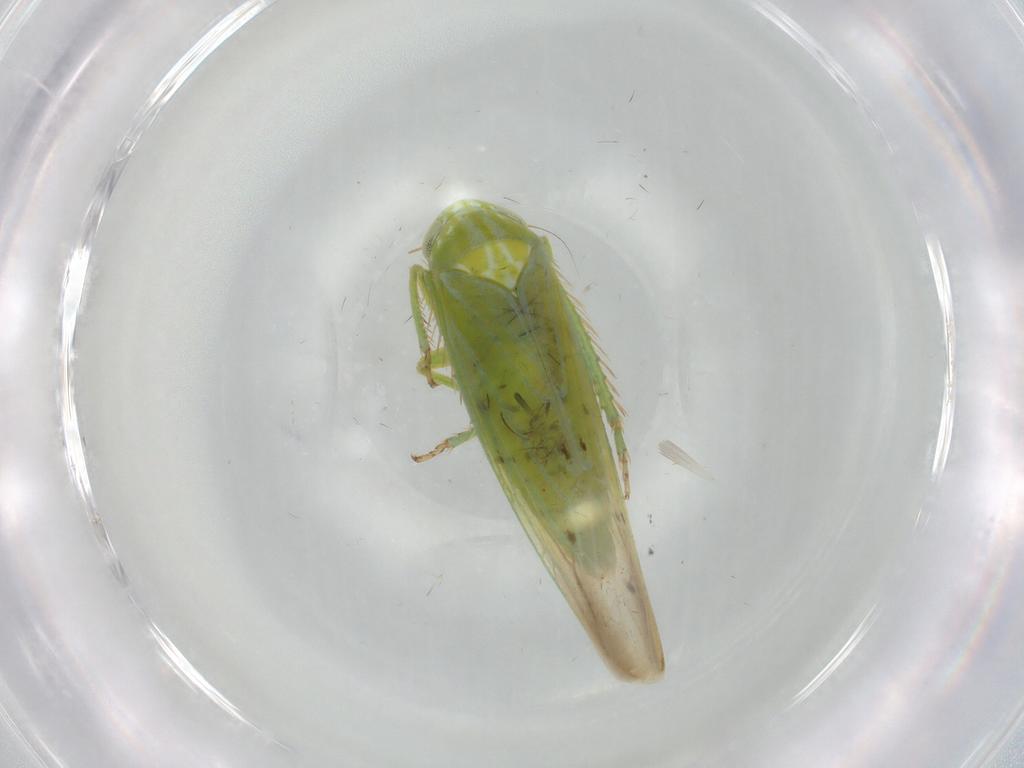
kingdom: Animalia
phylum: Arthropoda
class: Insecta
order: Hemiptera
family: Cicadellidae
